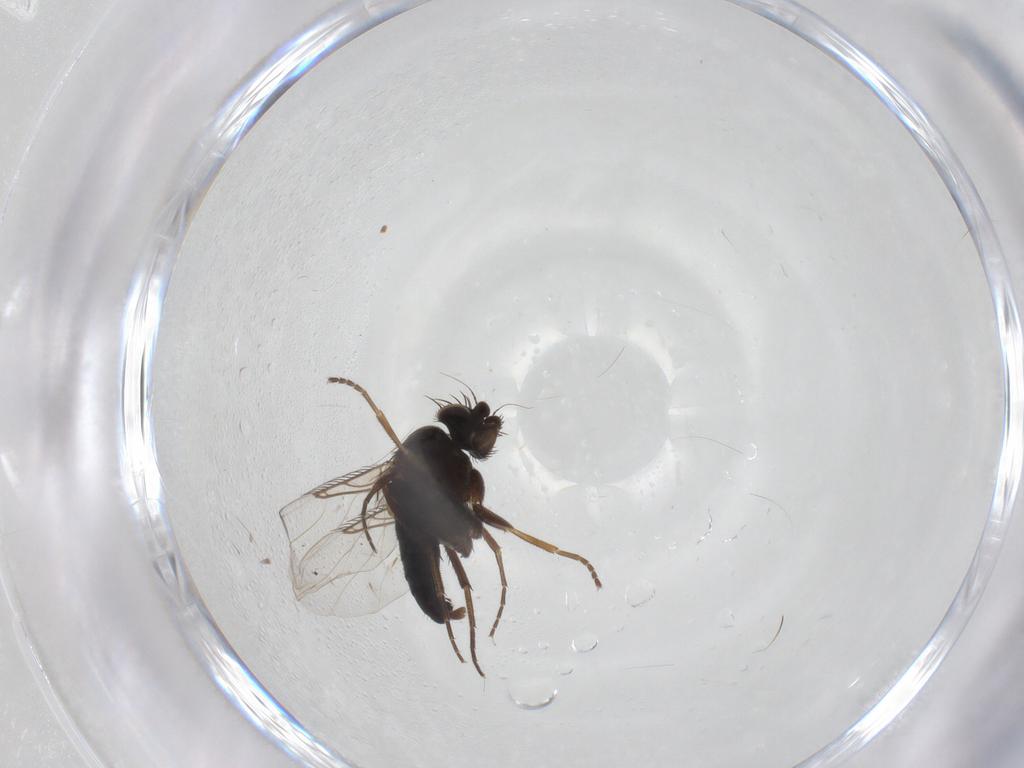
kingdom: Animalia
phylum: Arthropoda
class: Insecta
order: Diptera
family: Phoridae
